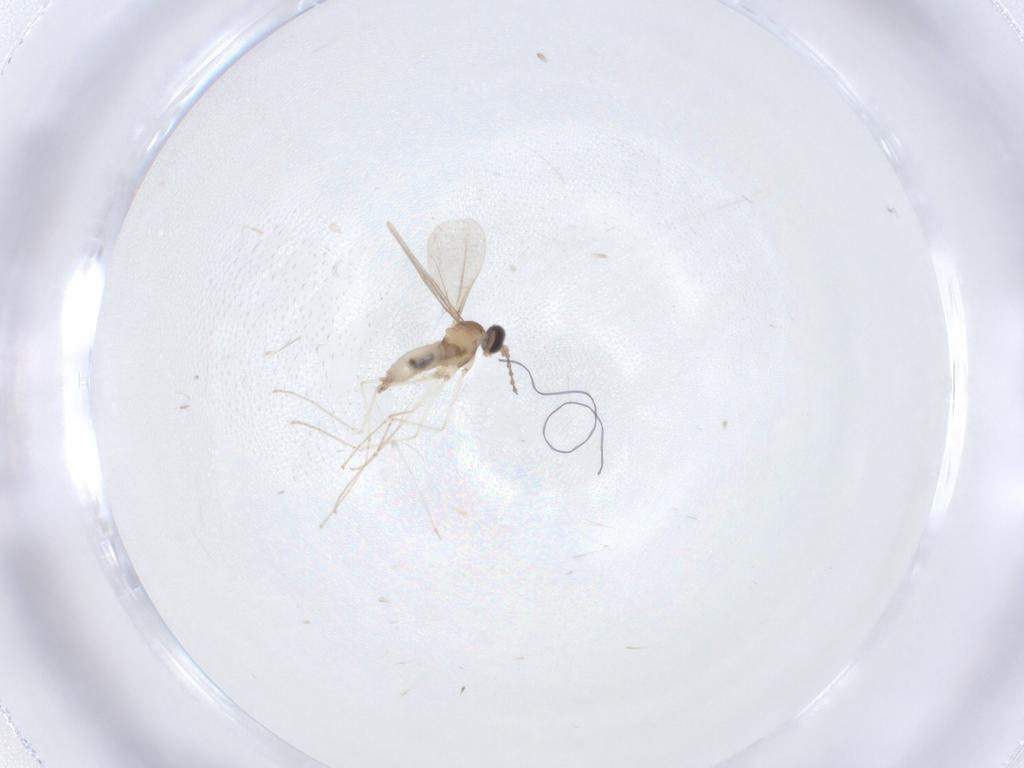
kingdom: Animalia
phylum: Arthropoda
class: Insecta
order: Diptera
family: Cecidomyiidae
